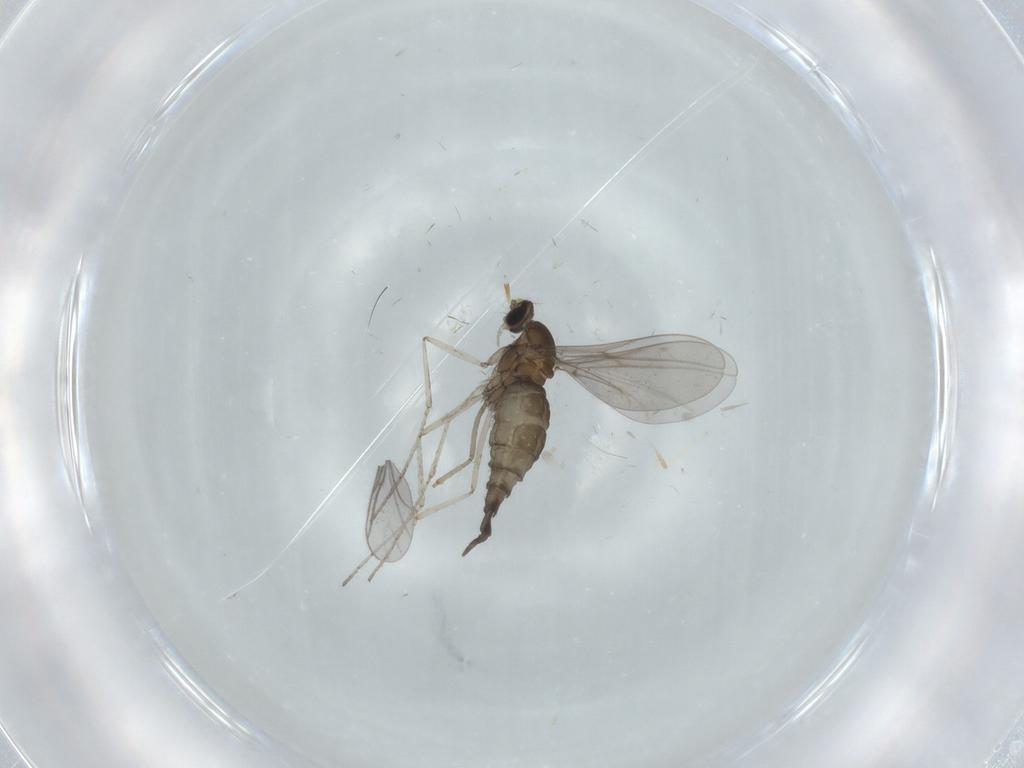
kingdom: Animalia
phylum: Arthropoda
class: Insecta
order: Diptera
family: Cecidomyiidae
